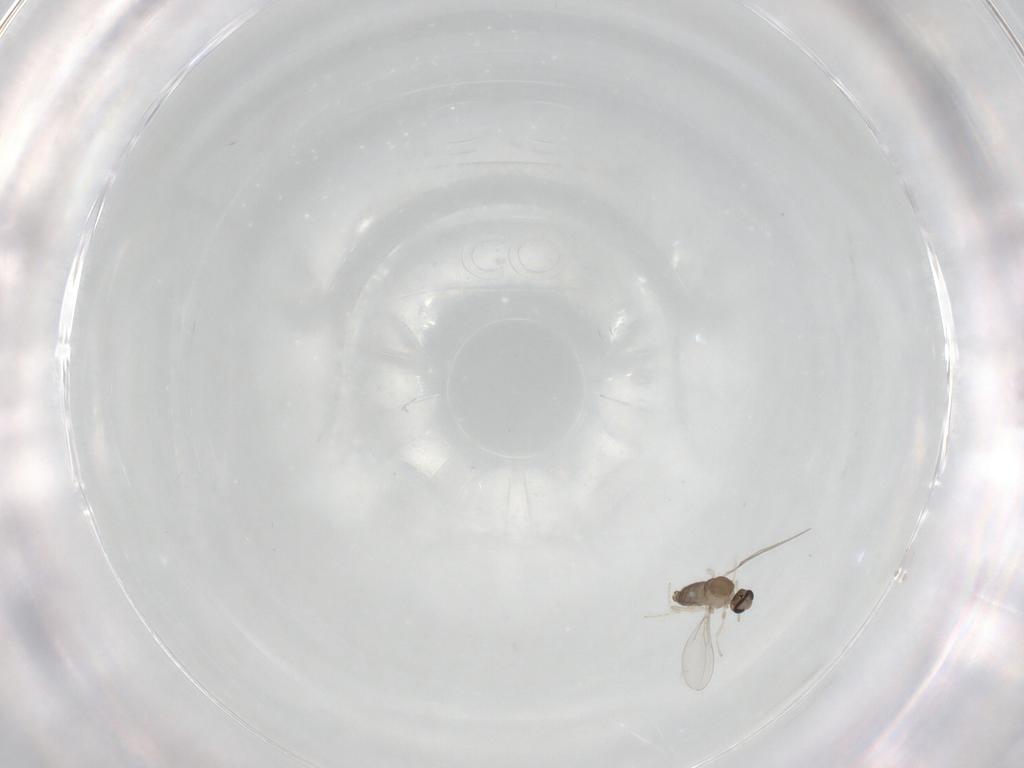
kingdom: Animalia
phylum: Arthropoda
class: Insecta
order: Diptera
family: Cecidomyiidae
